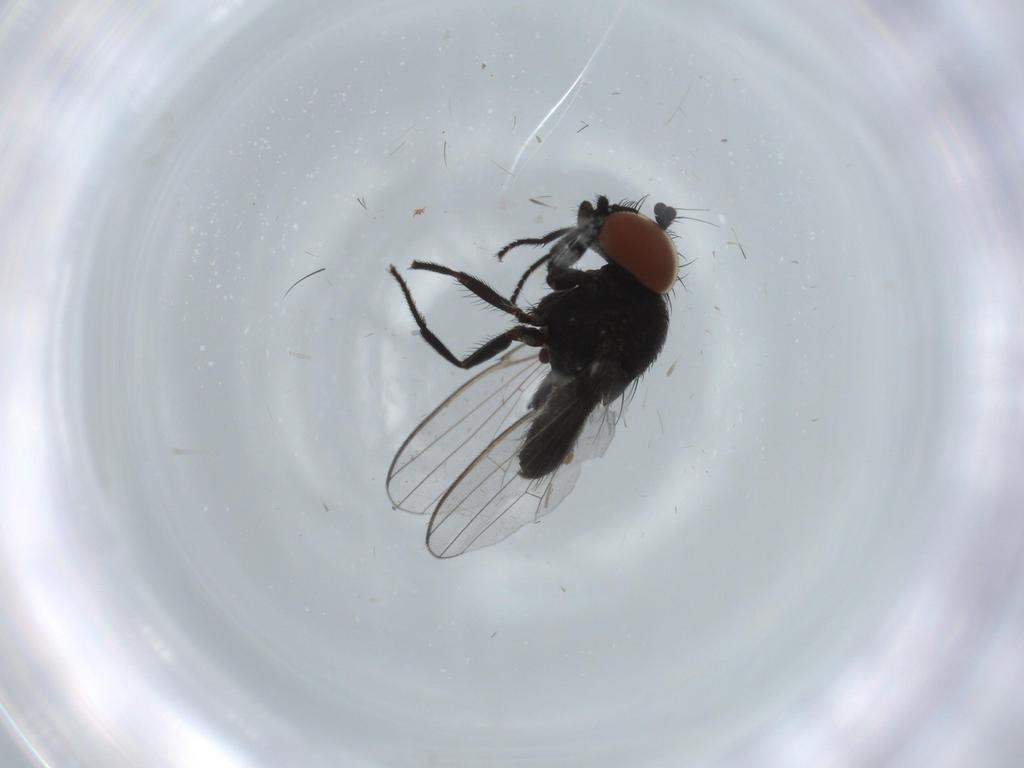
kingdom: Animalia
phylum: Arthropoda
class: Insecta
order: Diptera
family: Milichiidae
